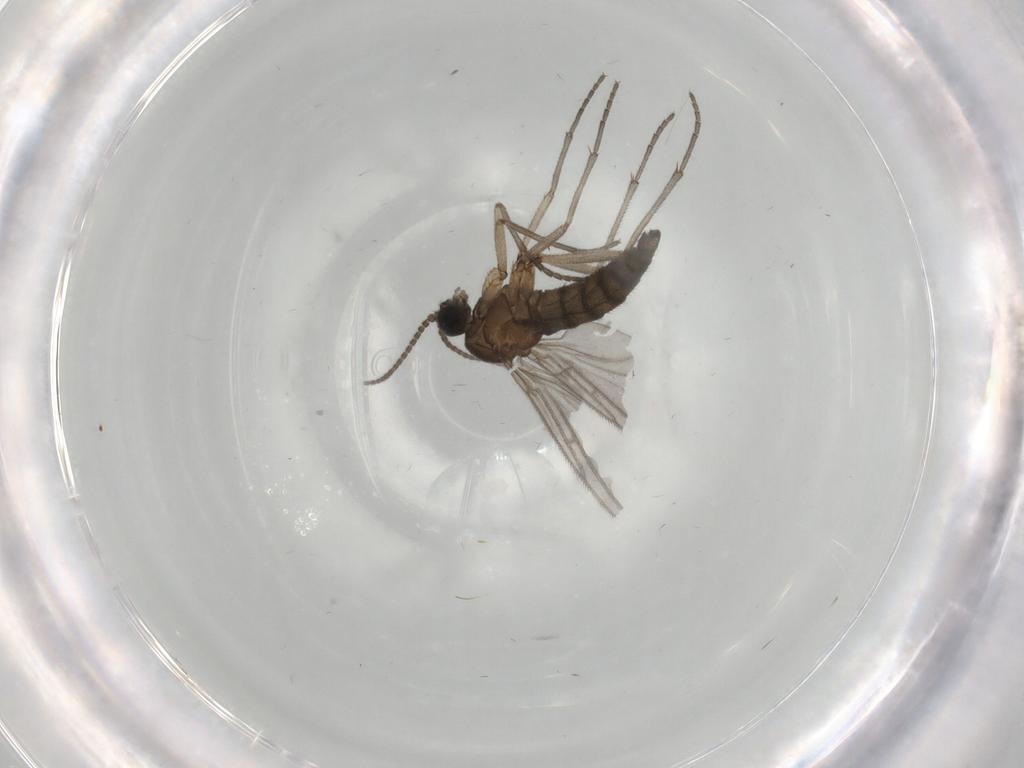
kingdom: Animalia
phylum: Arthropoda
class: Insecta
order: Diptera
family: Sciaridae
